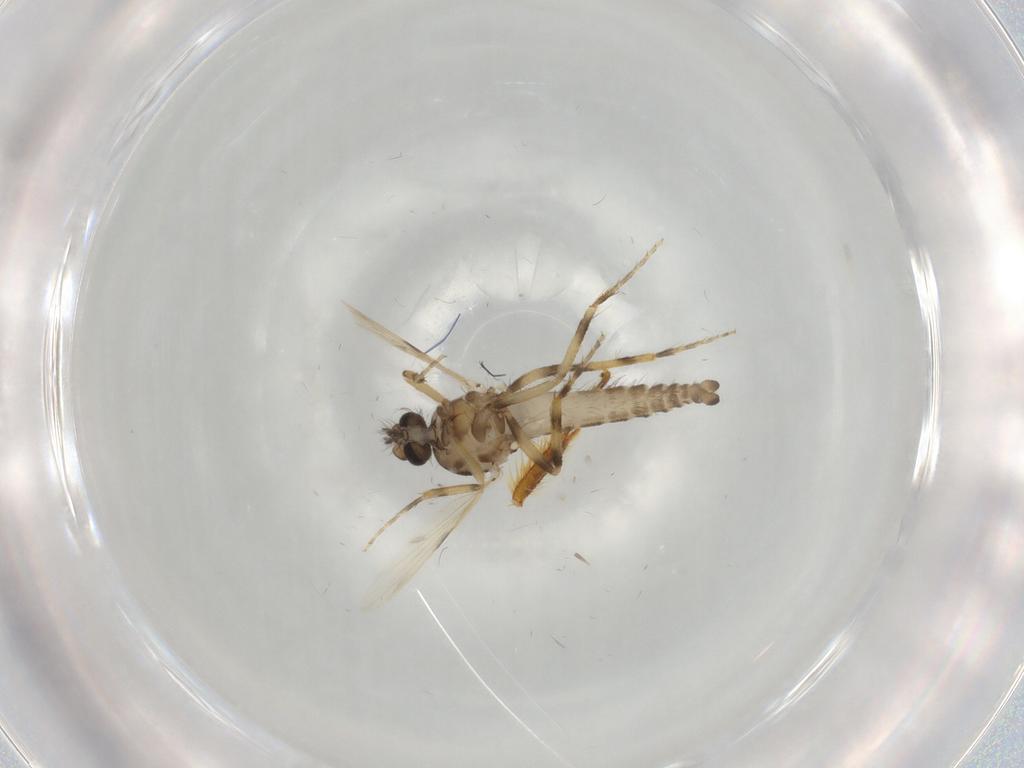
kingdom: Animalia
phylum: Arthropoda
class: Insecta
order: Diptera
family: Ceratopogonidae
